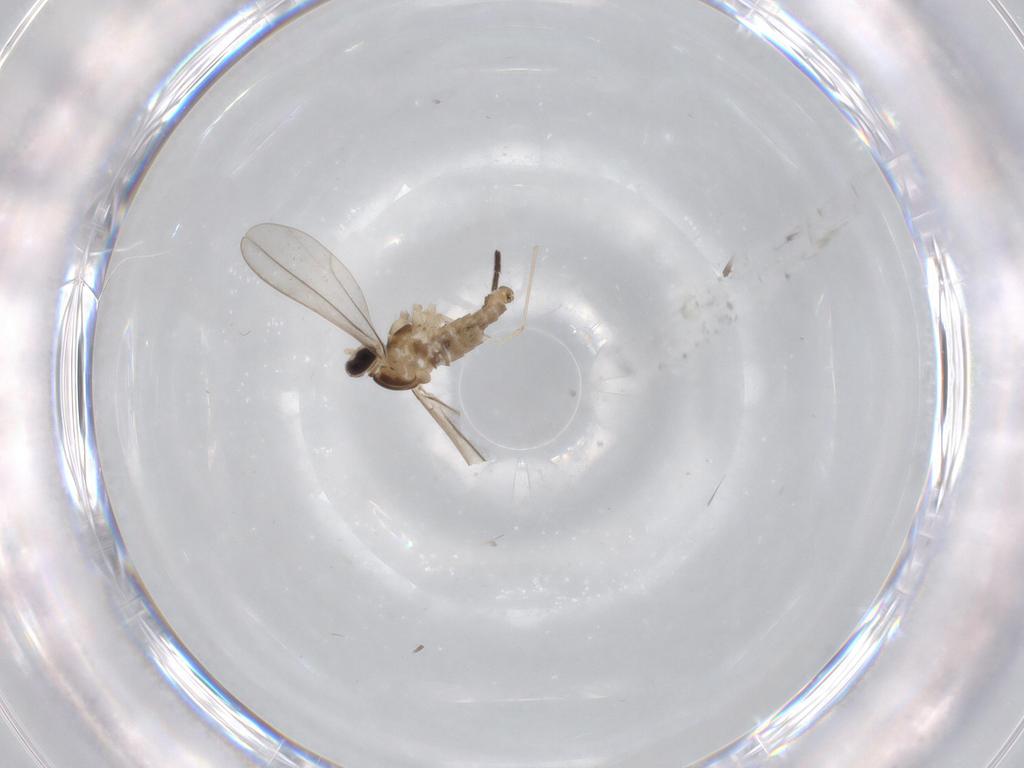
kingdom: Animalia
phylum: Arthropoda
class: Insecta
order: Diptera
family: Cecidomyiidae
